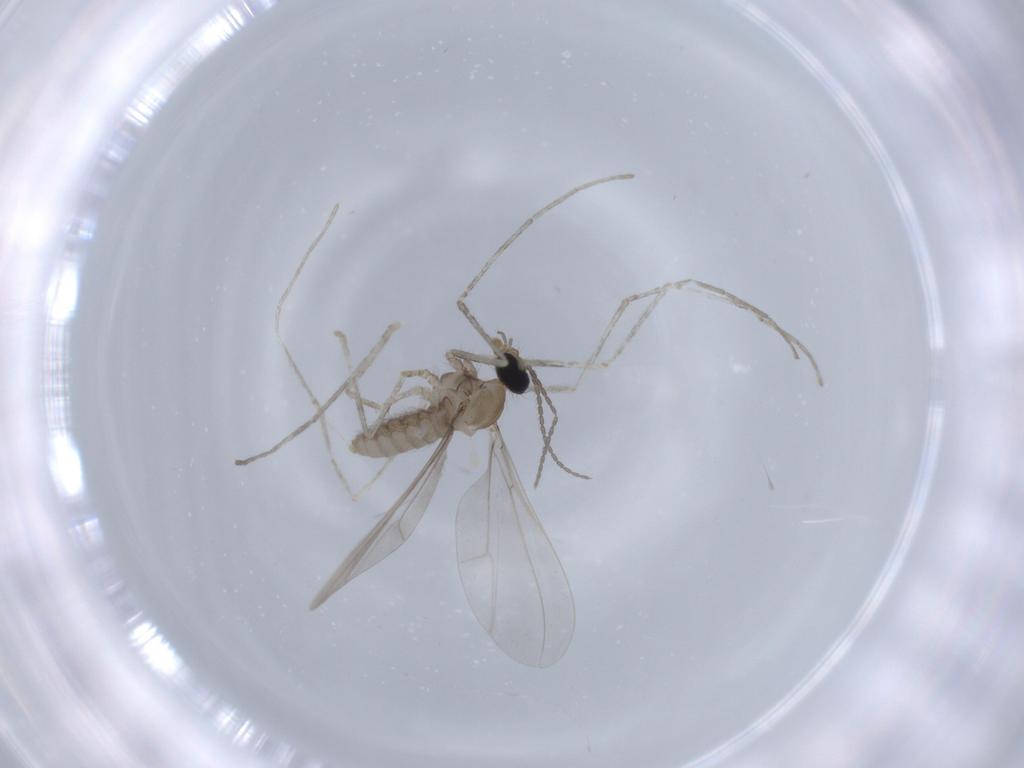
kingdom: Animalia
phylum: Arthropoda
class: Insecta
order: Diptera
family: Cecidomyiidae
